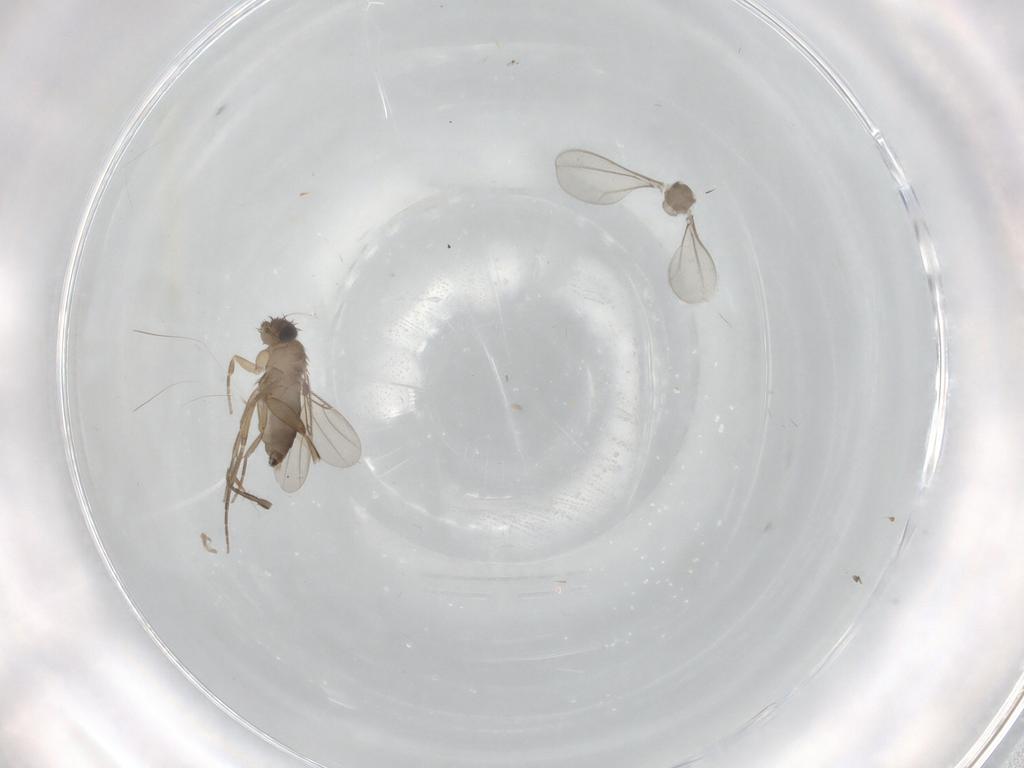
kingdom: Animalia
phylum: Arthropoda
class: Insecta
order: Diptera
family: Phoridae
